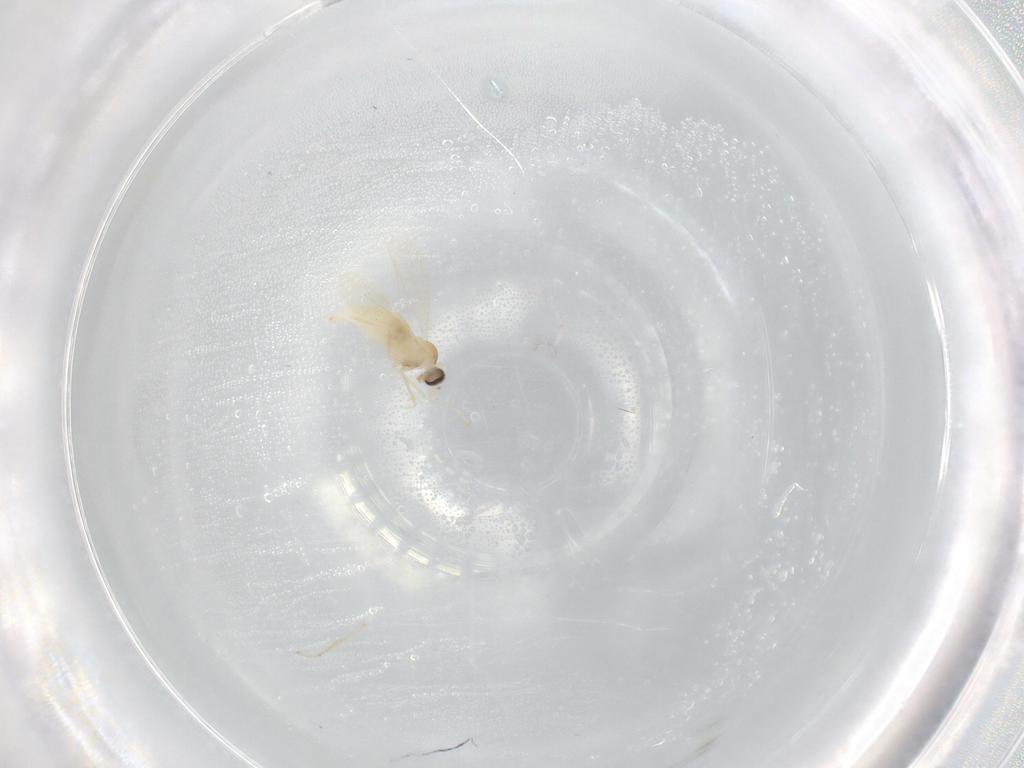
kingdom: Animalia
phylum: Arthropoda
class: Insecta
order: Diptera
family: Cecidomyiidae
